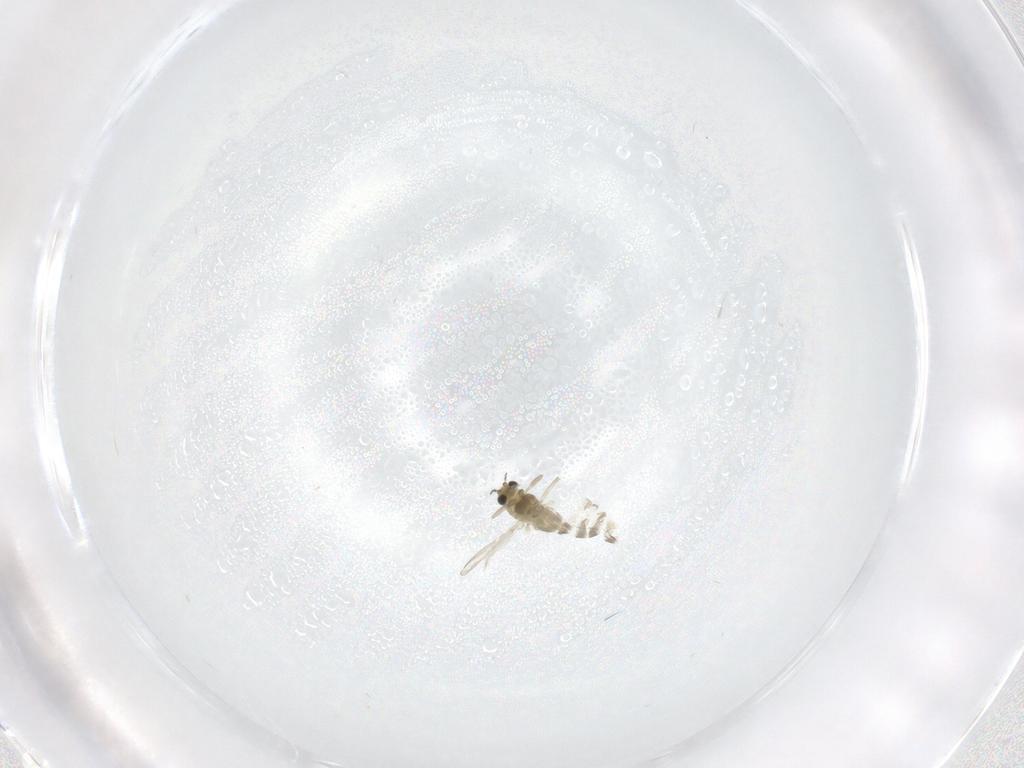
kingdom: Animalia
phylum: Arthropoda
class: Insecta
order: Diptera
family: Chironomidae
